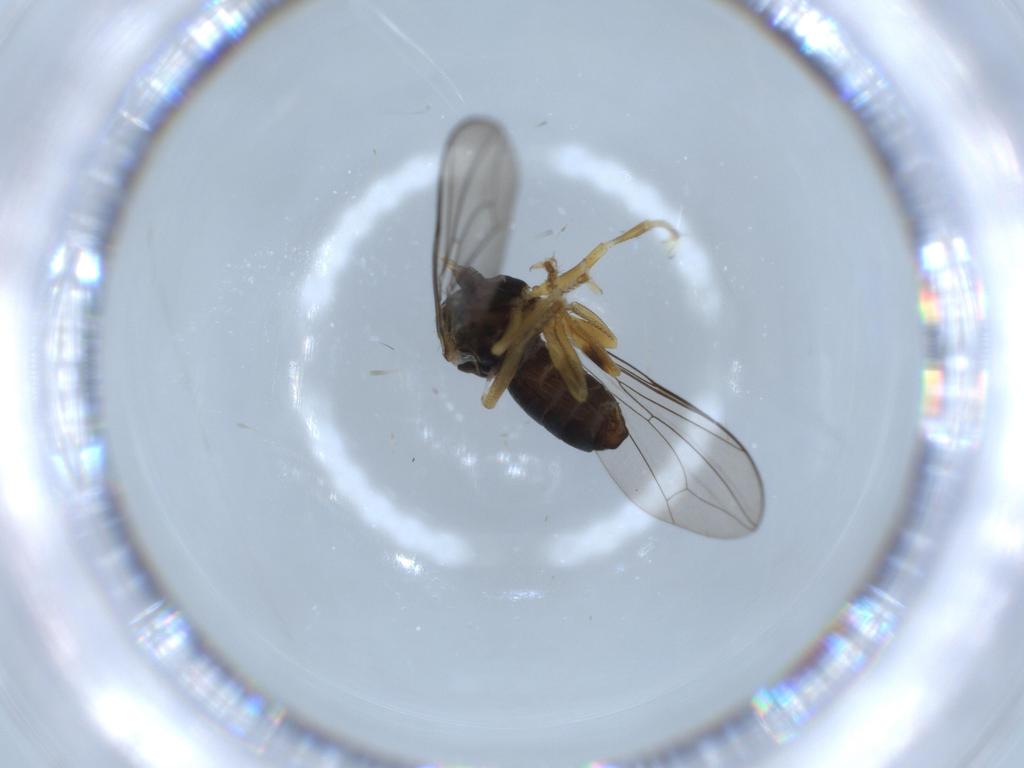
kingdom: Animalia
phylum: Arthropoda
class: Insecta
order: Diptera
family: Pipunculidae
